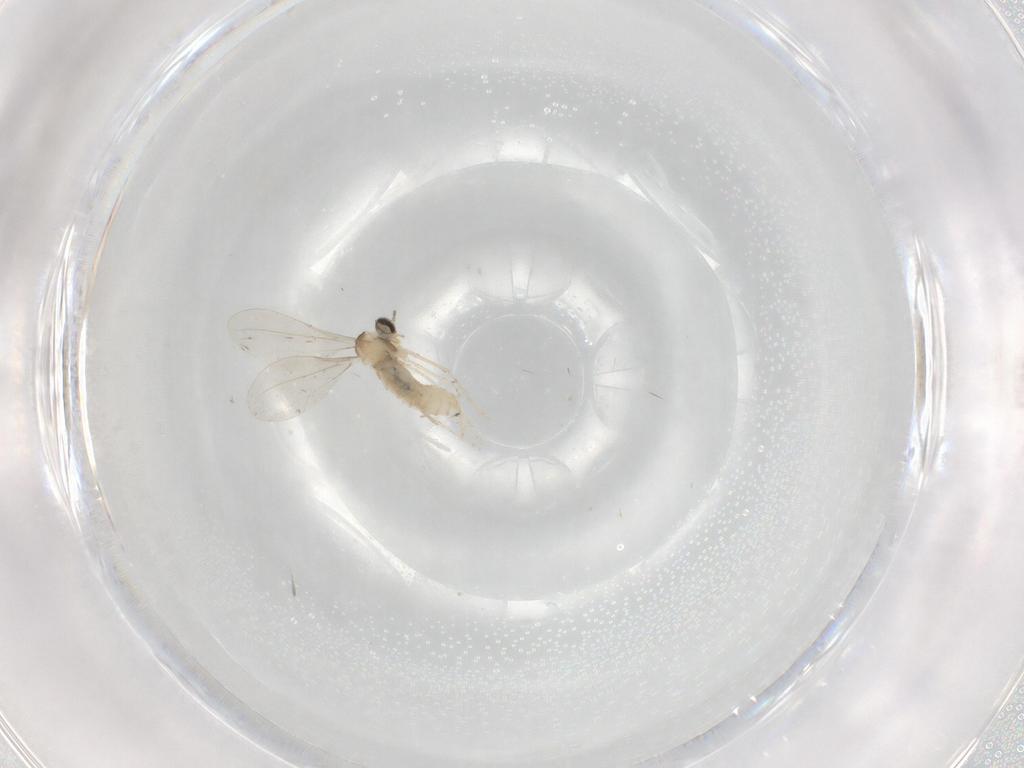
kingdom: Animalia
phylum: Arthropoda
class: Insecta
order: Diptera
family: Cecidomyiidae
